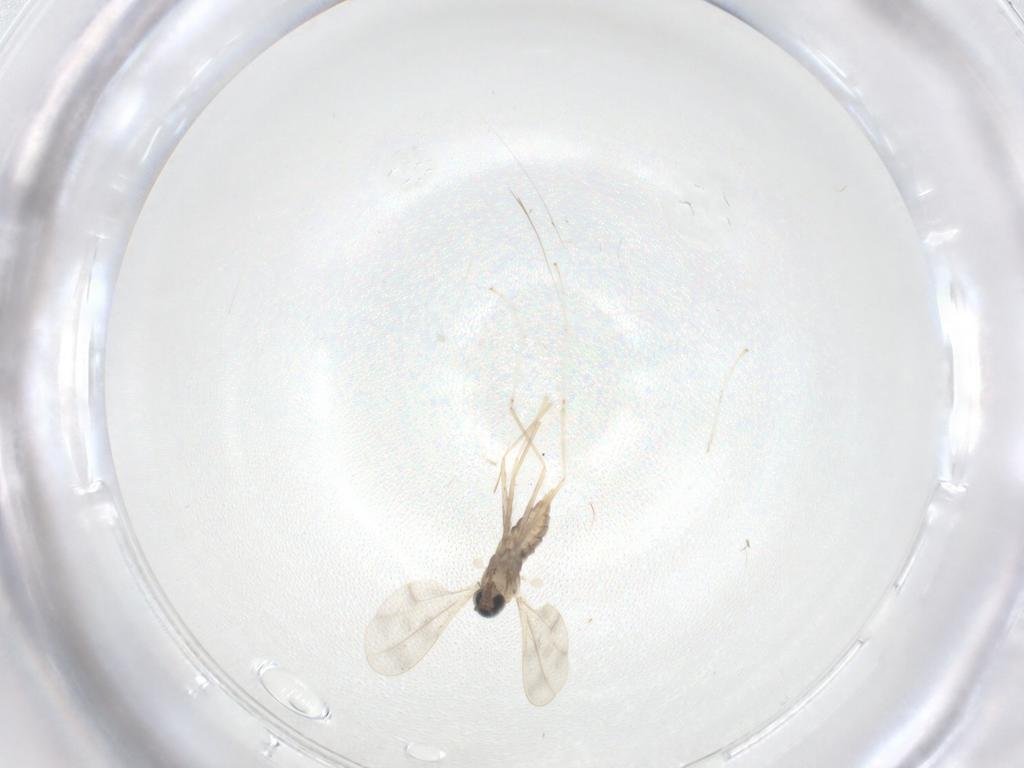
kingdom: Animalia
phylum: Arthropoda
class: Insecta
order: Diptera
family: Cecidomyiidae
